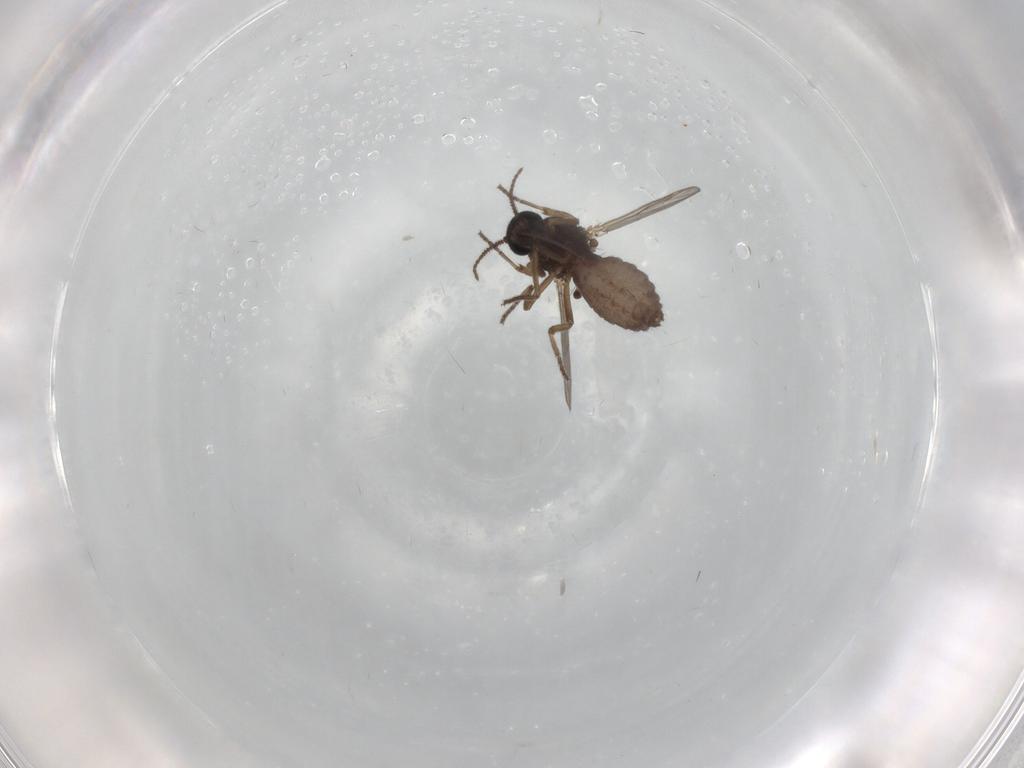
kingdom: Animalia
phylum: Arthropoda
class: Insecta
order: Diptera
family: Ceratopogonidae
